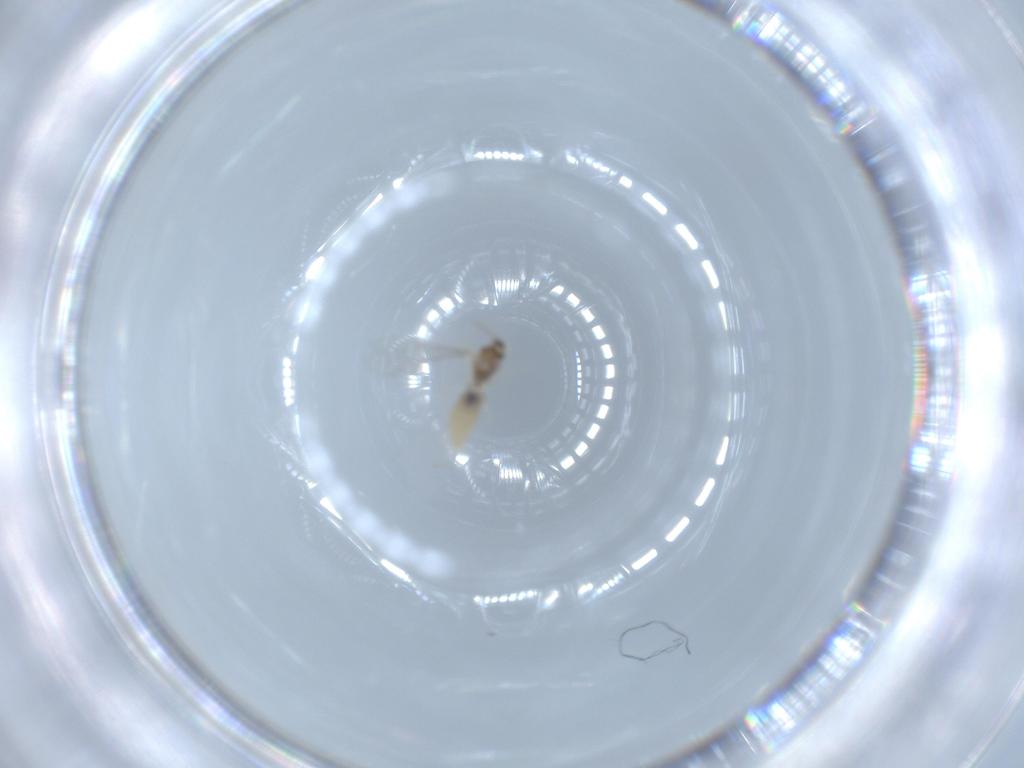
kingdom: Animalia
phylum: Arthropoda
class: Insecta
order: Diptera
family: Cecidomyiidae
